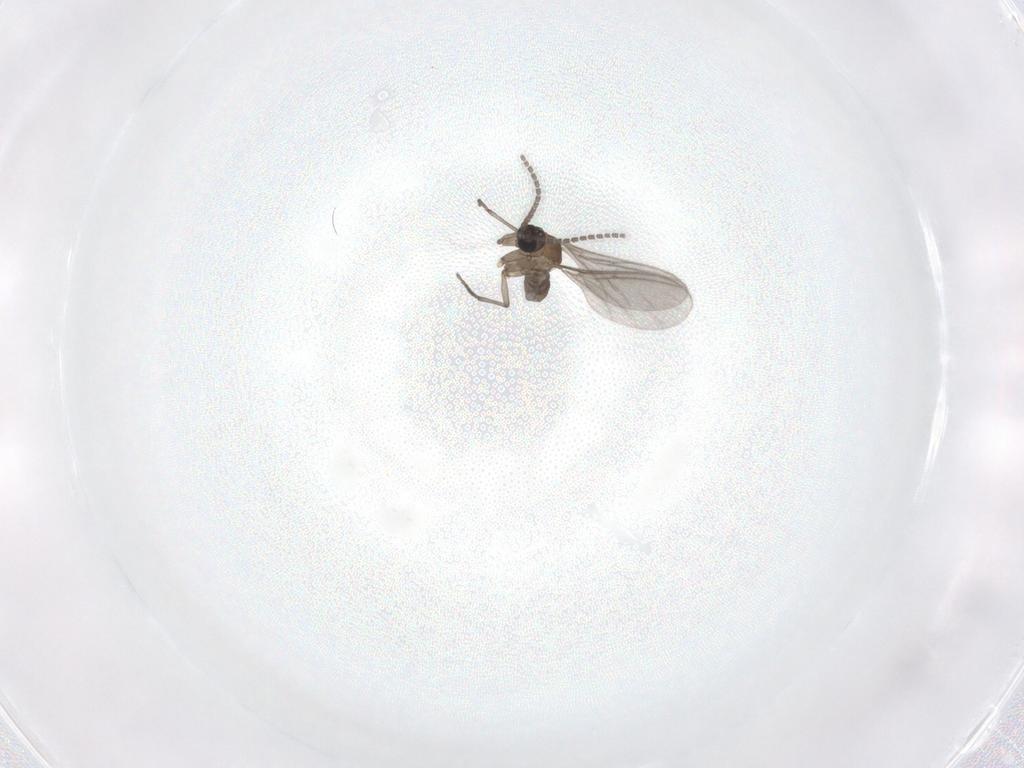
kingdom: Animalia
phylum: Arthropoda
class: Insecta
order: Diptera
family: Sciaridae
